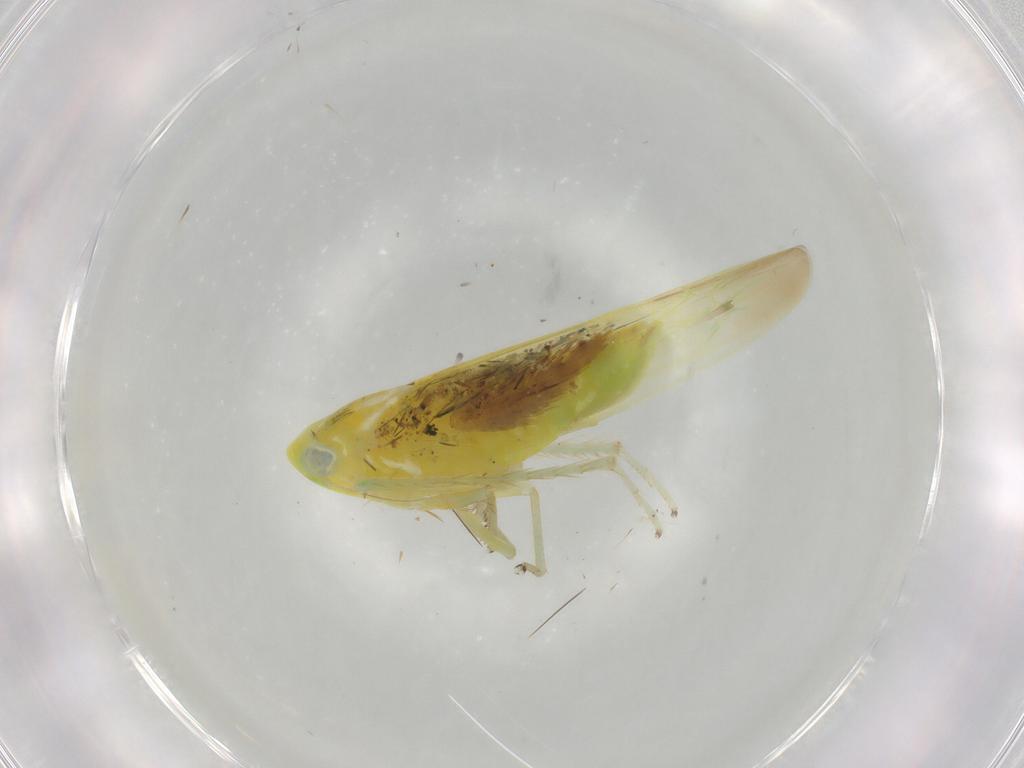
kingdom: Animalia
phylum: Arthropoda
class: Insecta
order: Hemiptera
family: Cicadellidae
